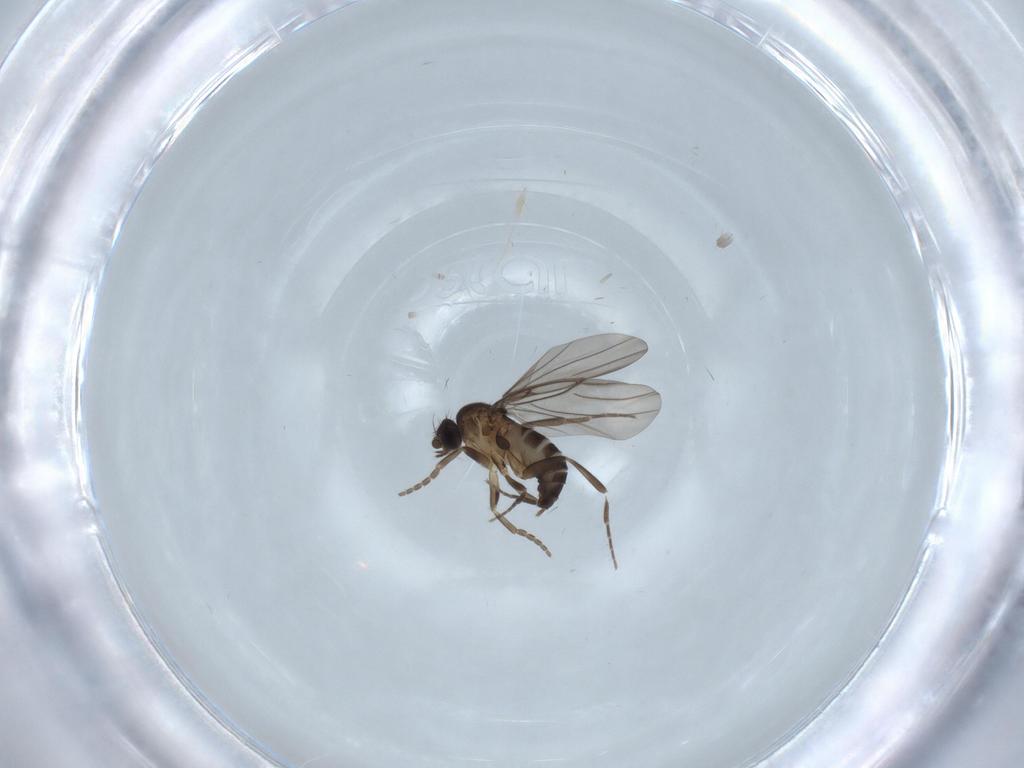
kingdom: Animalia
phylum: Arthropoda
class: Insecta
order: Diptera
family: Phoridae
